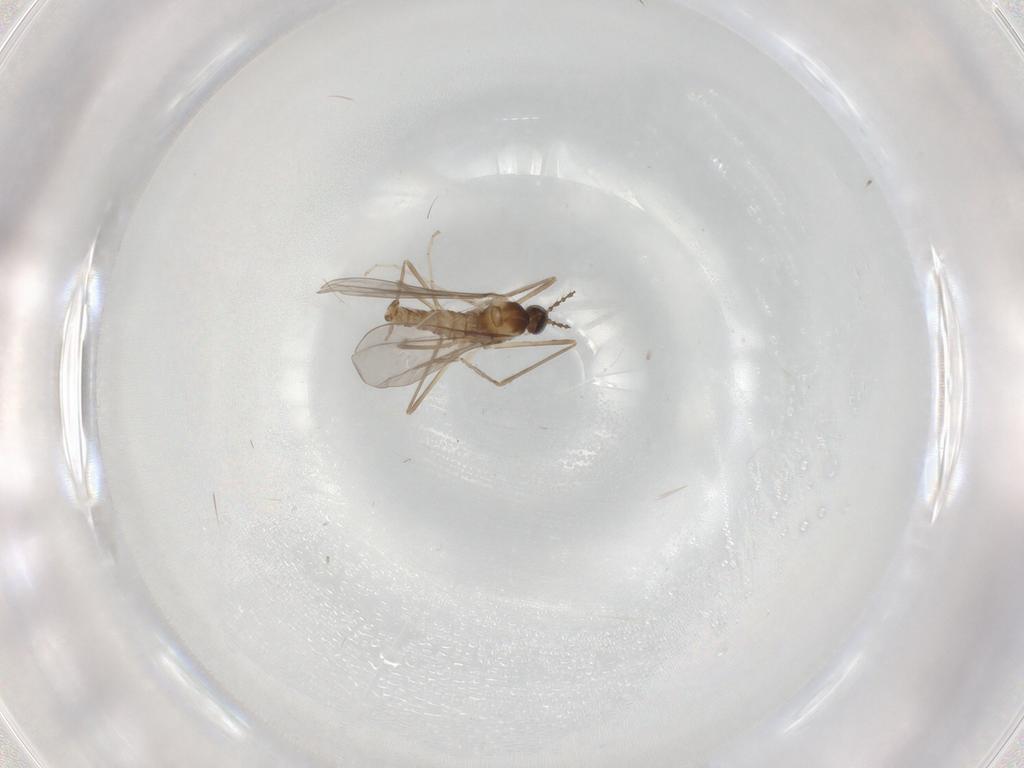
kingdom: Animalia
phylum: Arthropoda
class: Insecta
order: Diptera
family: Cecidomyiidae
